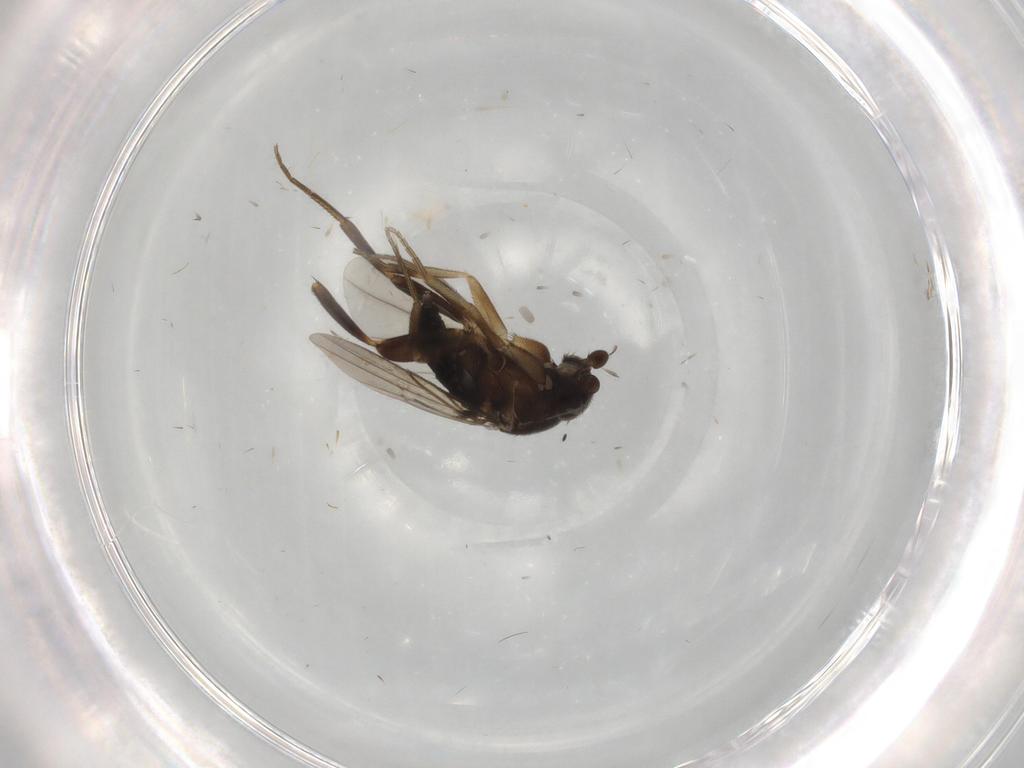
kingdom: Animalia
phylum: Arthropoda
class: Insecta
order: Diptera
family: Phoridae
